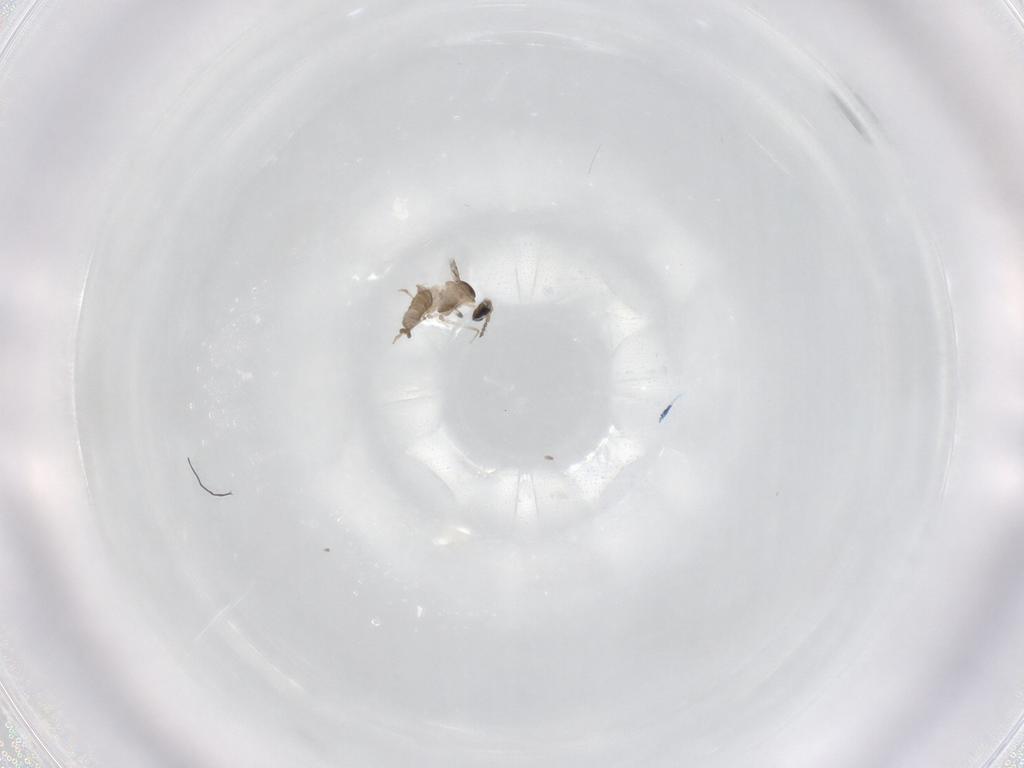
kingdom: Animalia
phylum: Arthropoda
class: Insecta
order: Diptera
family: Cecidomyiidae
